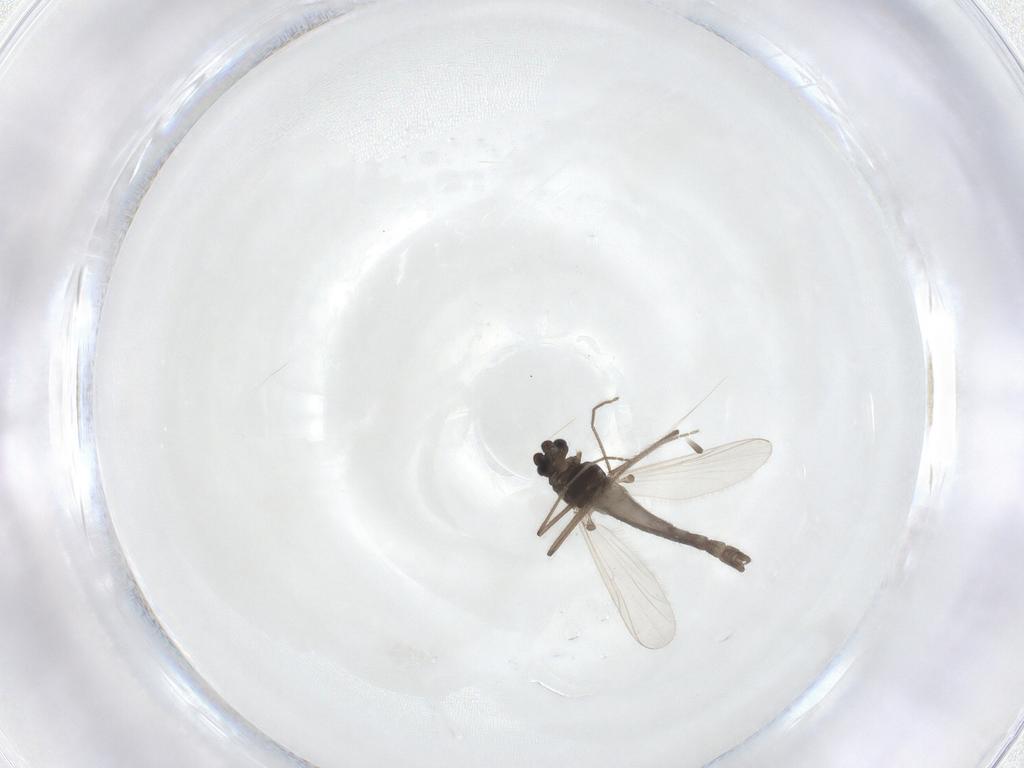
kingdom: Animalia
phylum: Arthropoda
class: Insecta
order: Diptera
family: Chironomidae
